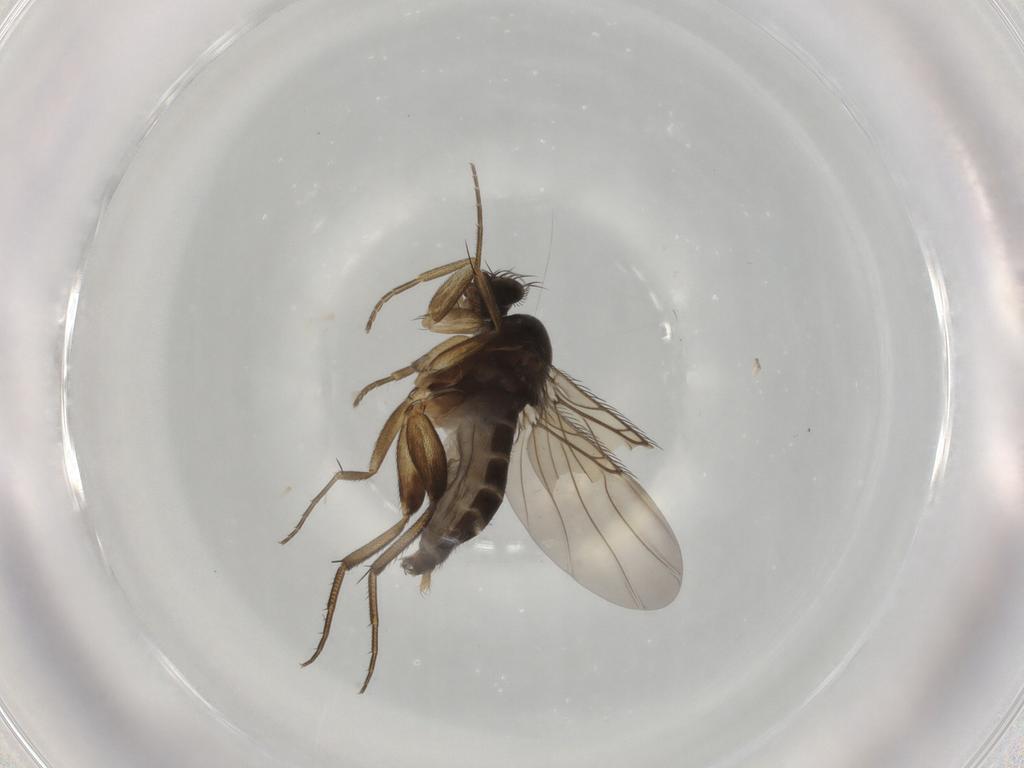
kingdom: Animalia
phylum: Arthropoda
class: Insecta
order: Diptera
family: Phoridae
